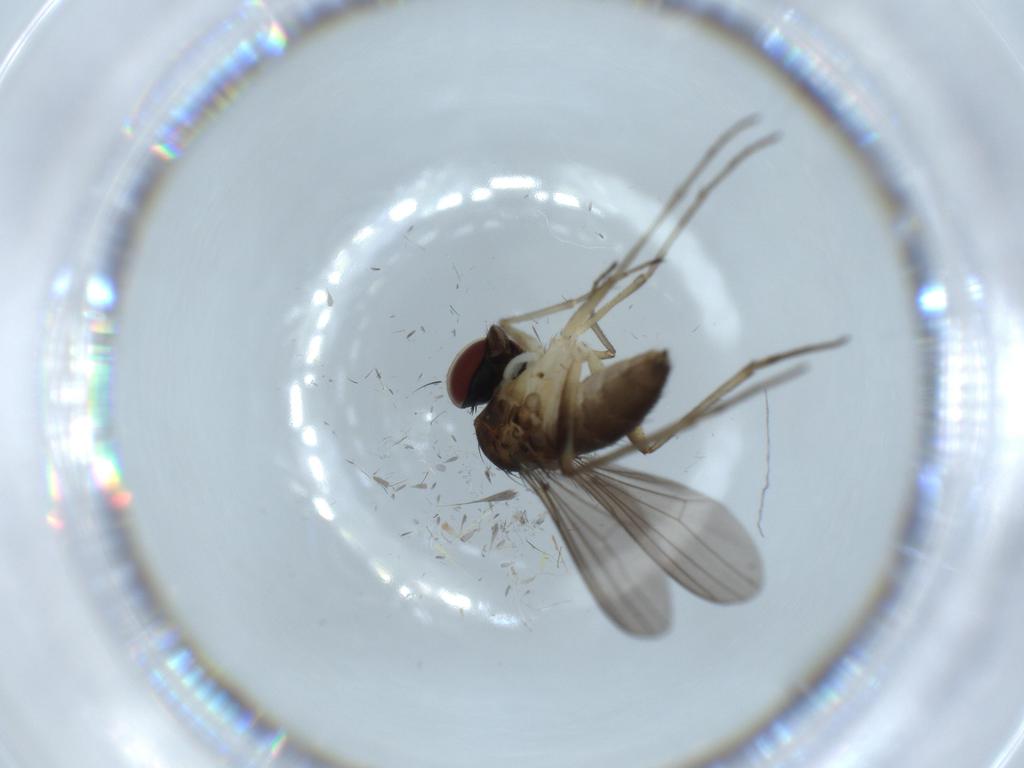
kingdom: Animalia
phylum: Arthropoda
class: Insecta
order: Diptera
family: Dolichopodidae
